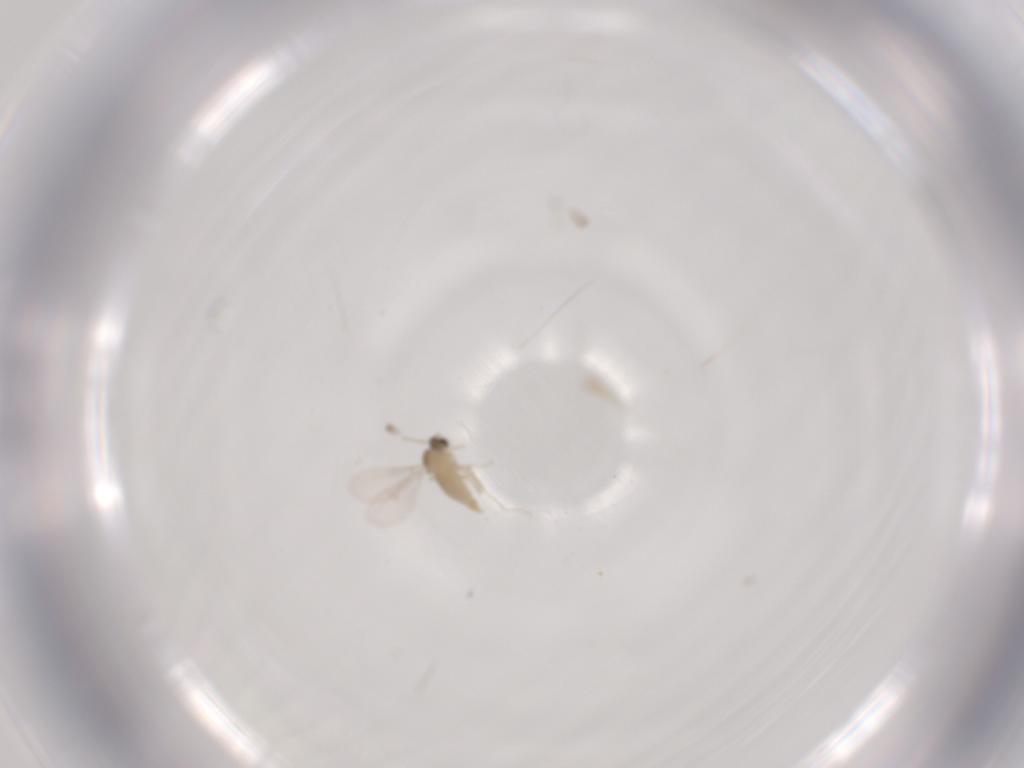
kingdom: Animalia
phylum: Arthropoda
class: Insecta
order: Diptera
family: Cecidomyiidae
